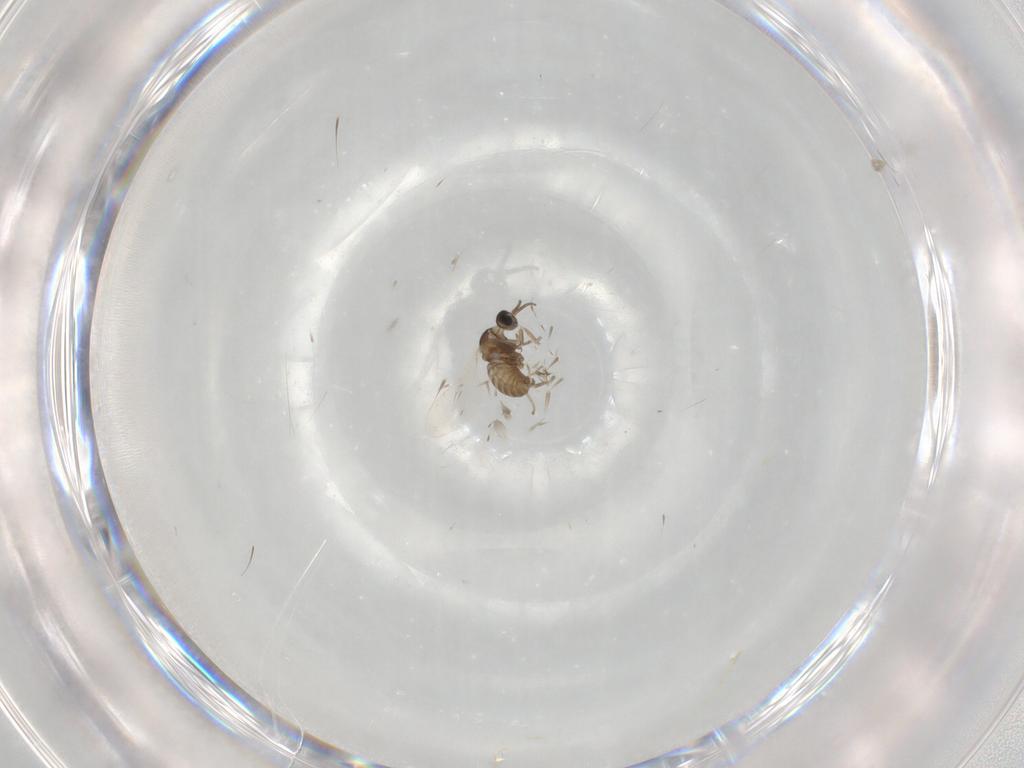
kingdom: Animalia
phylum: Arthropoda
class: Insecta
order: Diptera
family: Cecidomyiidae
